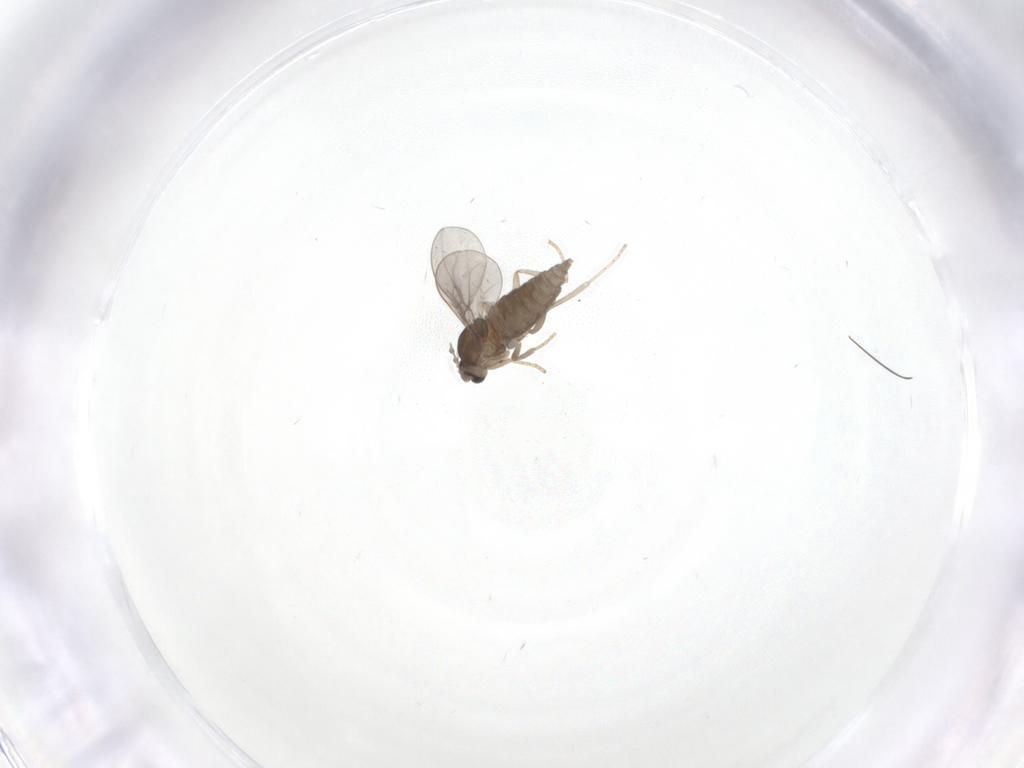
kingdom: Animalia
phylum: Arthropoda
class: Insecta
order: Diptera
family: Cecidomyiidae
